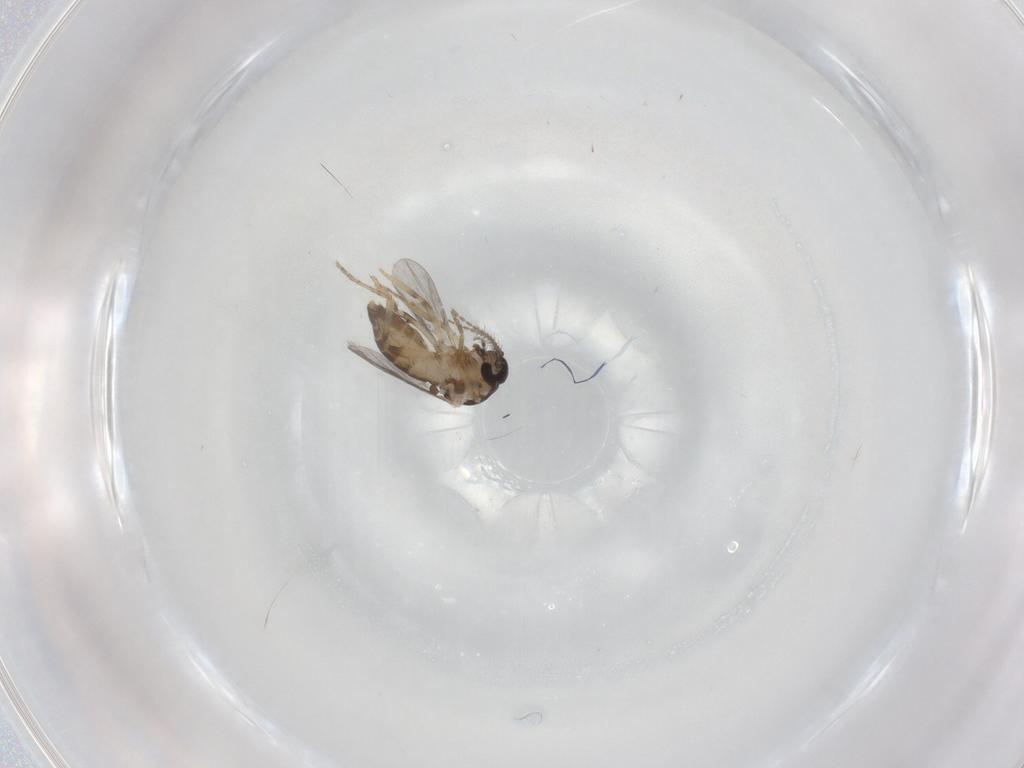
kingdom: Animalia
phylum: Arthropoda
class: Insecta
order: Diptera
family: Ceratopogonidae
